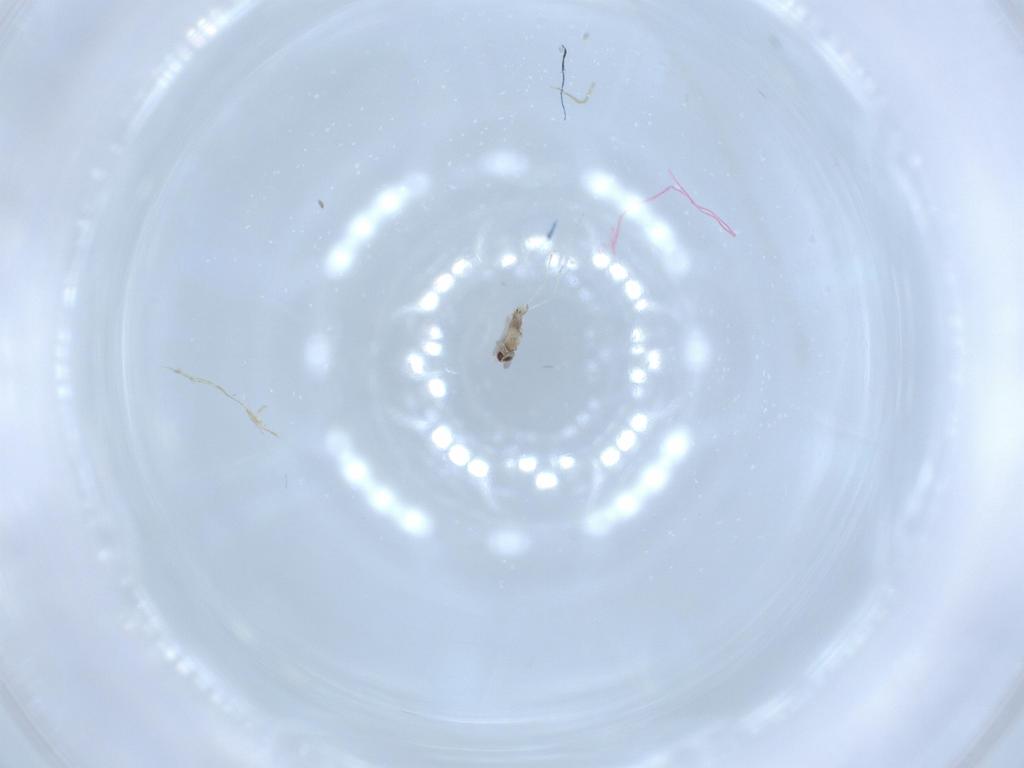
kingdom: Animalia
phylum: Arthropoda
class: Insecta
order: Diptera
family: Cecidomyiidae
